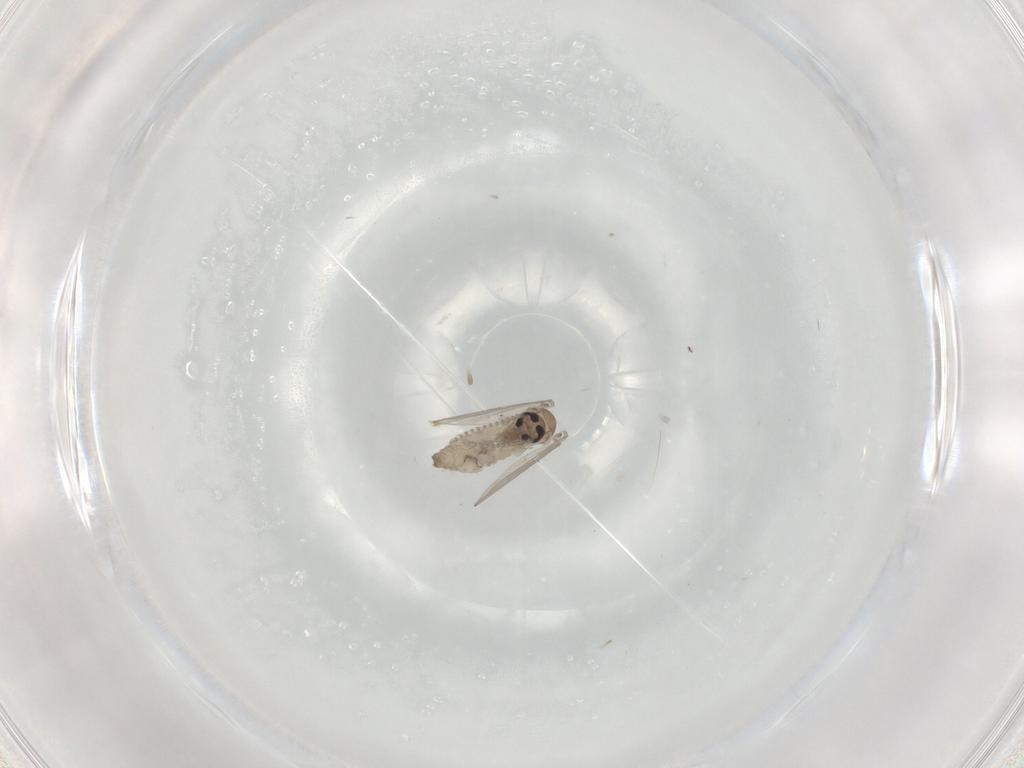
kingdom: Animalia
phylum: Arthropoda
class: Insecta
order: Diptera
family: Psychodidae
